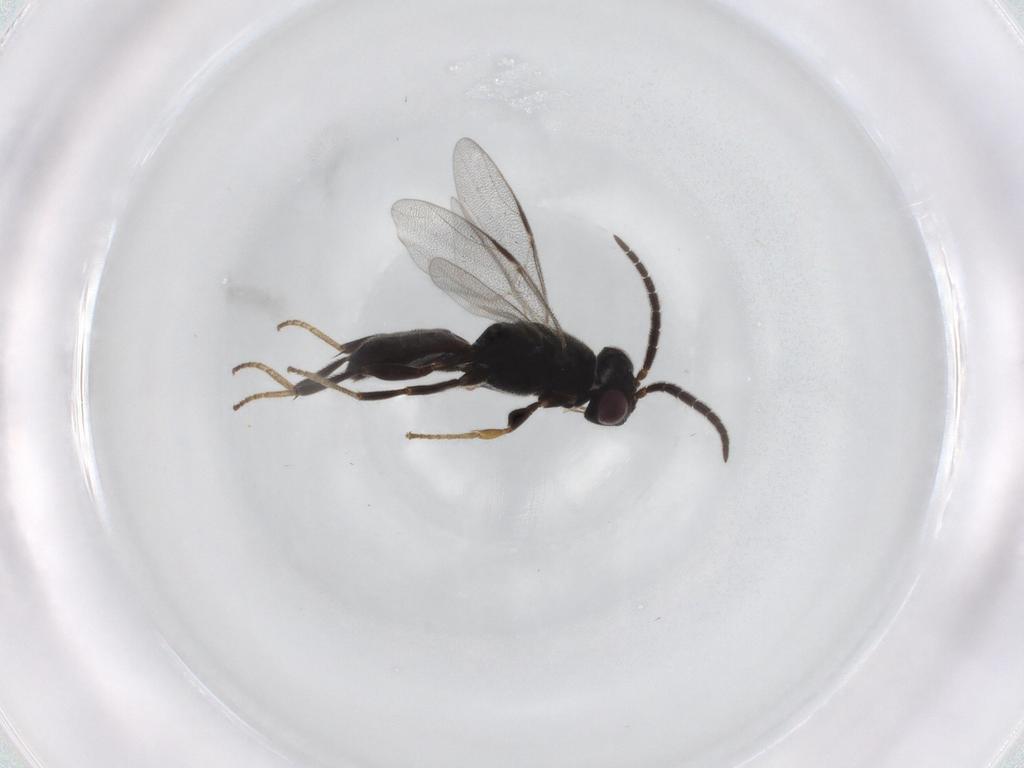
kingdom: Animalia
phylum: Arthropoda
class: Insecta
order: Hymenoptera
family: Dryinidae
